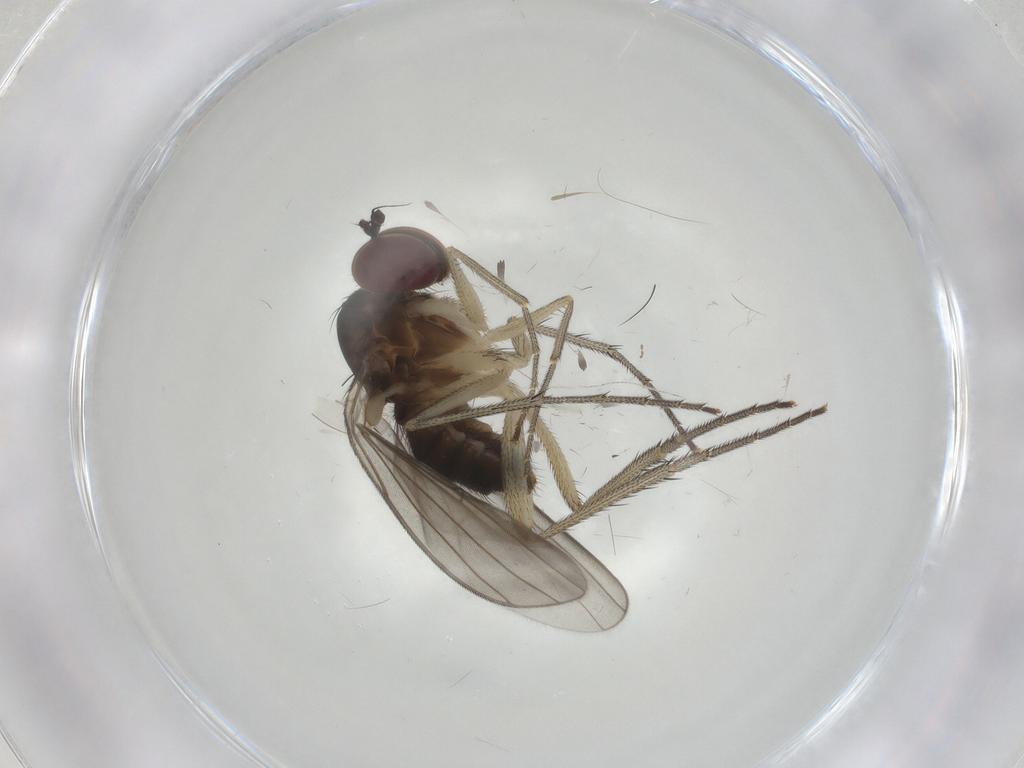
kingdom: Animalia
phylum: Arthropoda
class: Insecta
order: Diptera
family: Psychodidae
